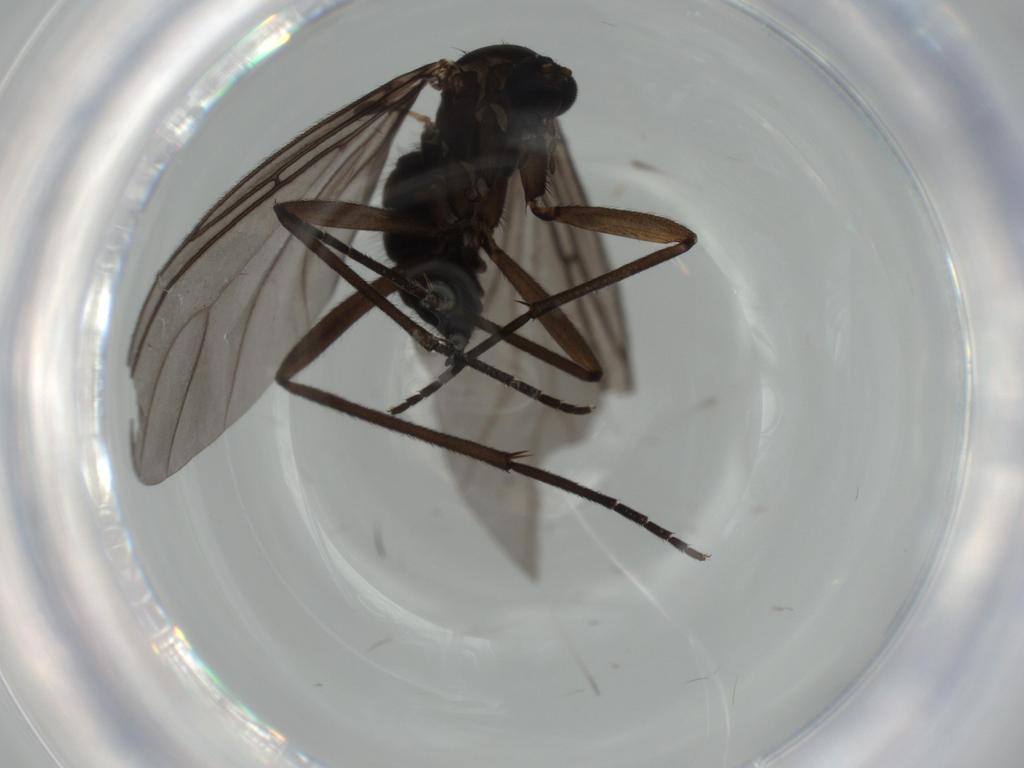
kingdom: Animalia
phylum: Arthropoda
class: Insecta
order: Diptera
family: Sciaridae
